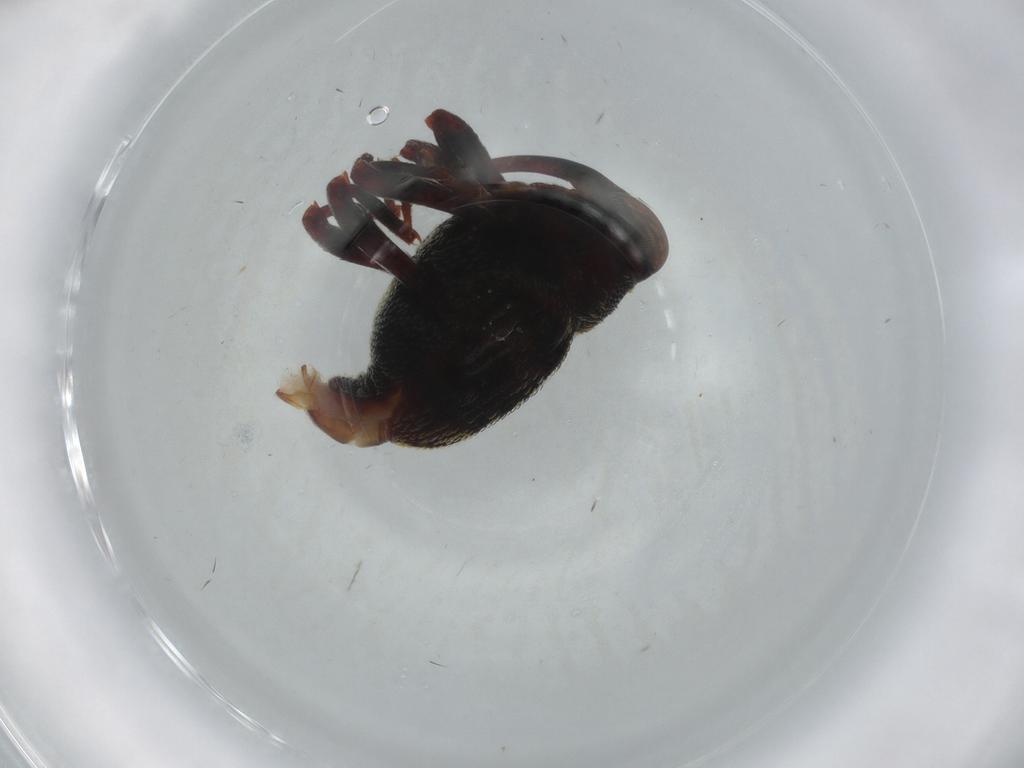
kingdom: Animalia
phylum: Arthropoda
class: Insecta
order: Coleoptera
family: Curculionidae
